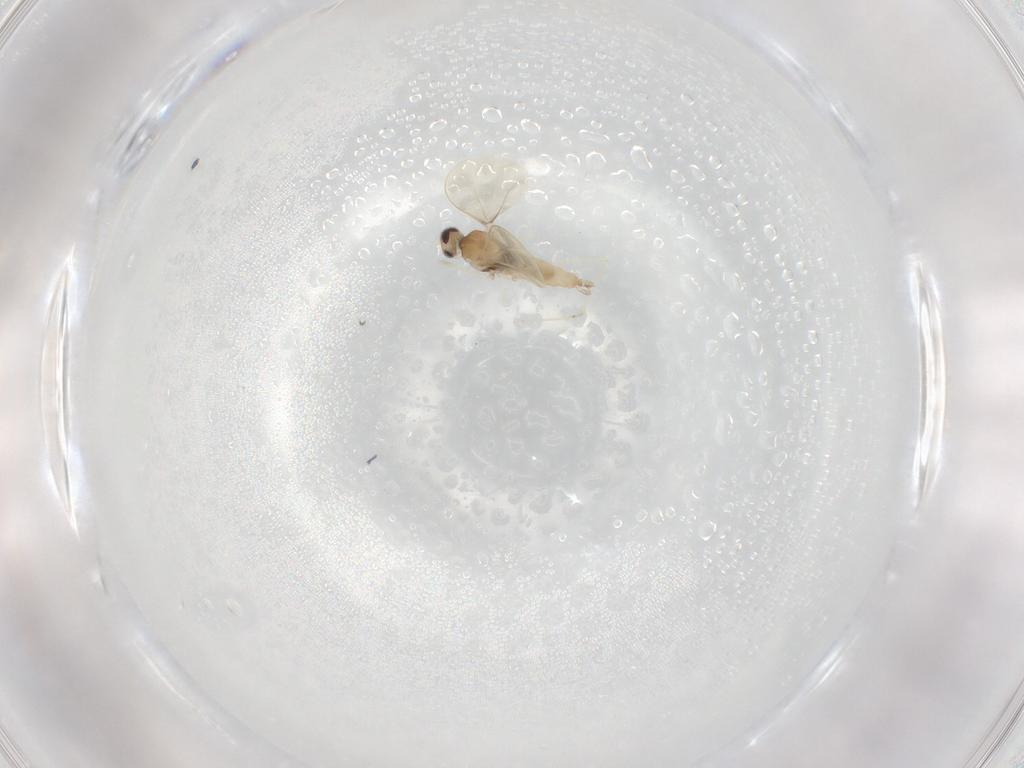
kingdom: Animalia
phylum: Arthropoda
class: Insecta
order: Diptera
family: Cecidomyiidae
